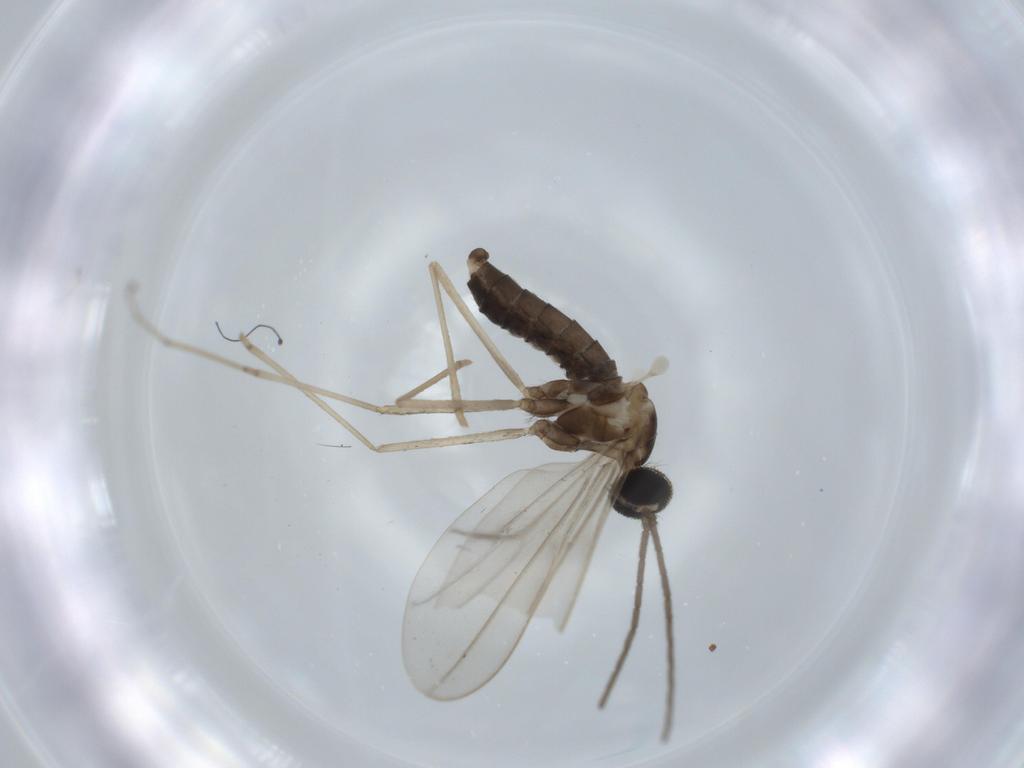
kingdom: Animalia
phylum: Arthropoda
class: Insecta
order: Diptera
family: Cecidomyiidae
